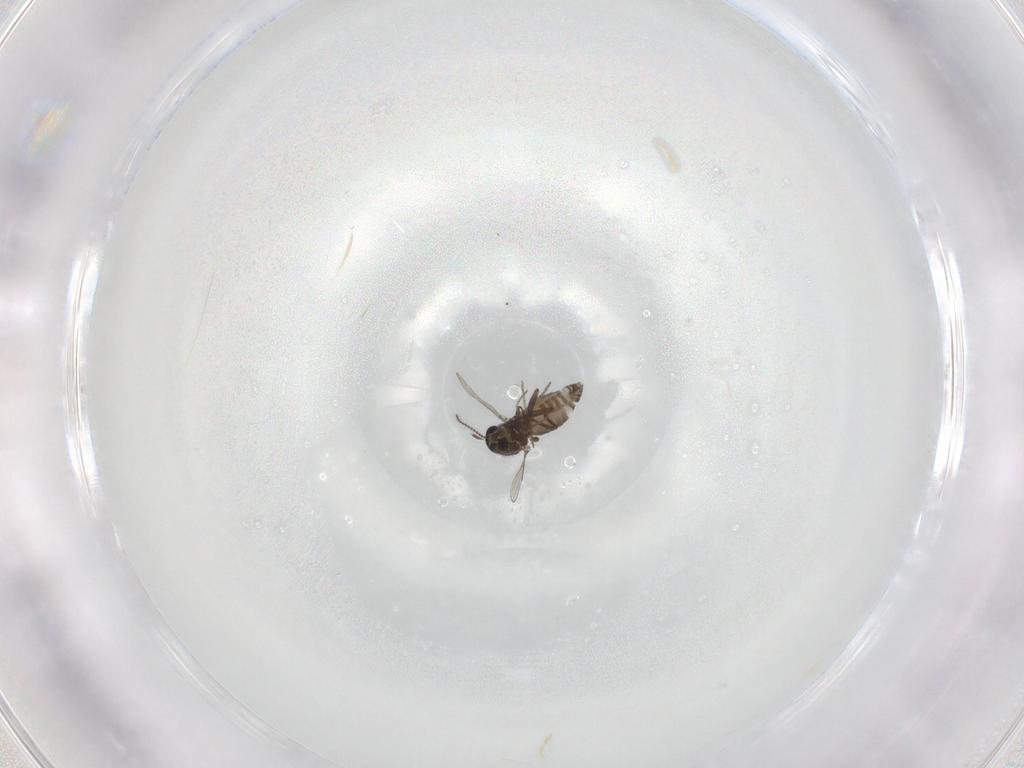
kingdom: Animalia
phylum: Arthropoda
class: Insecta
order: Diptera
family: Ceratopogonidae
